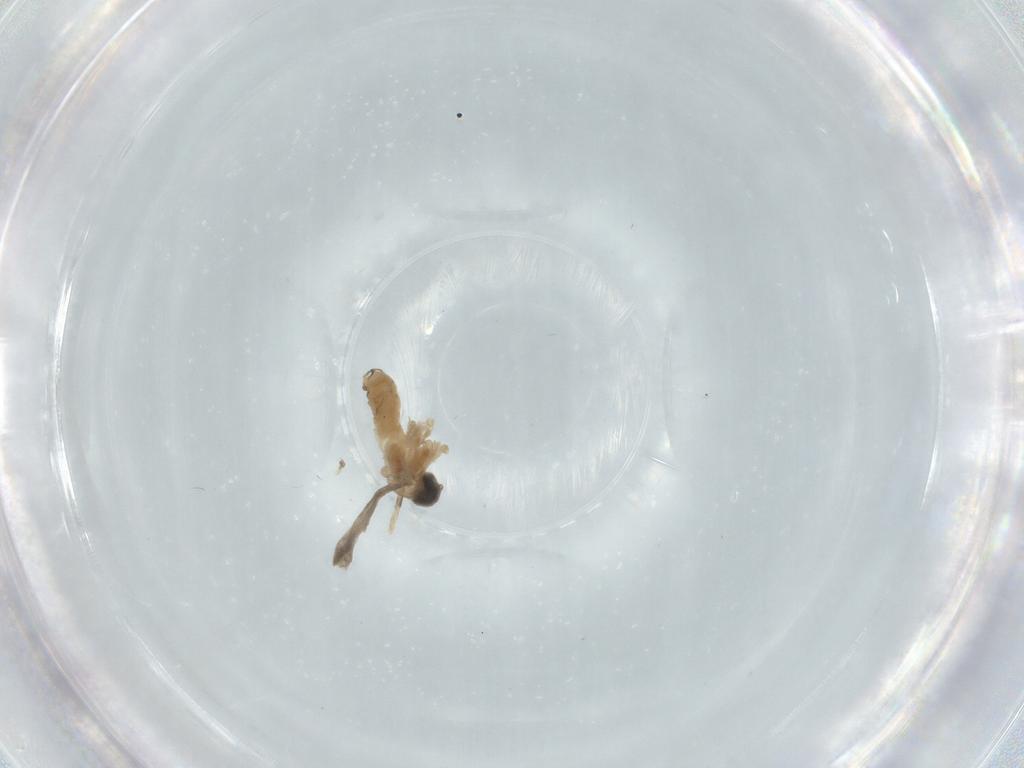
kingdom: Animalia
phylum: Arthropoda
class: Insecta
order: Diptera
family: Cecidomyiidae
